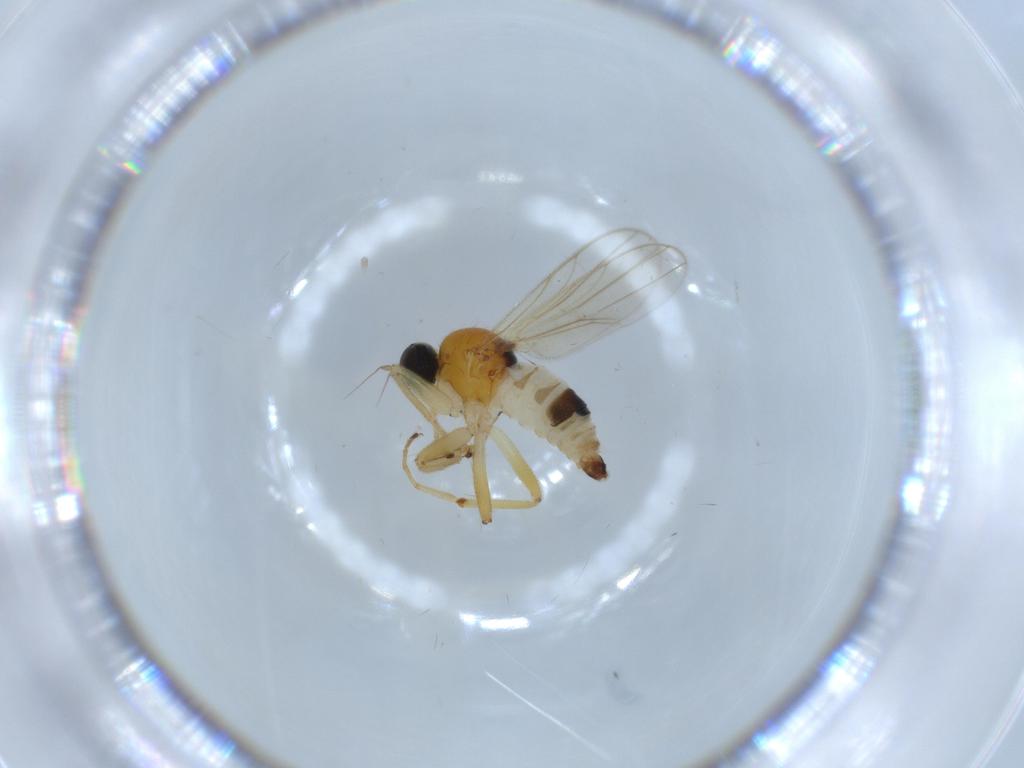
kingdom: Animalia
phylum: Arthropoda
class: Insecta
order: Diptera
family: Hybotidae
